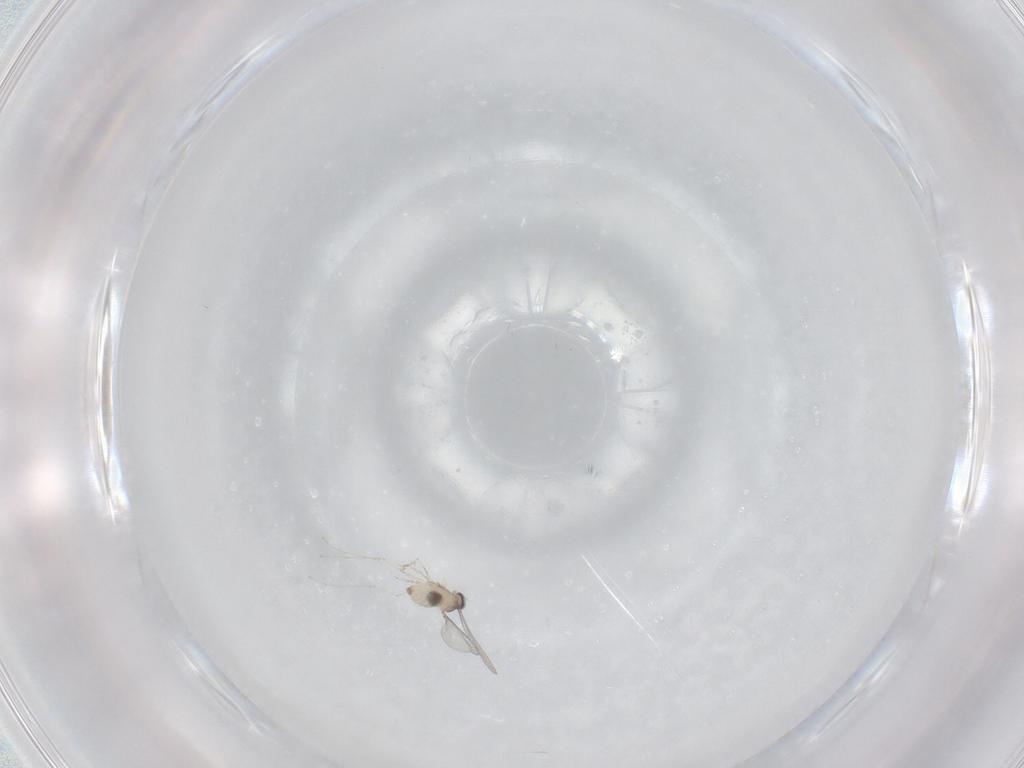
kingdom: Animalia
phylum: Arthropoda
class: Insecta
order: Diptera
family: Cecidomyiidae
